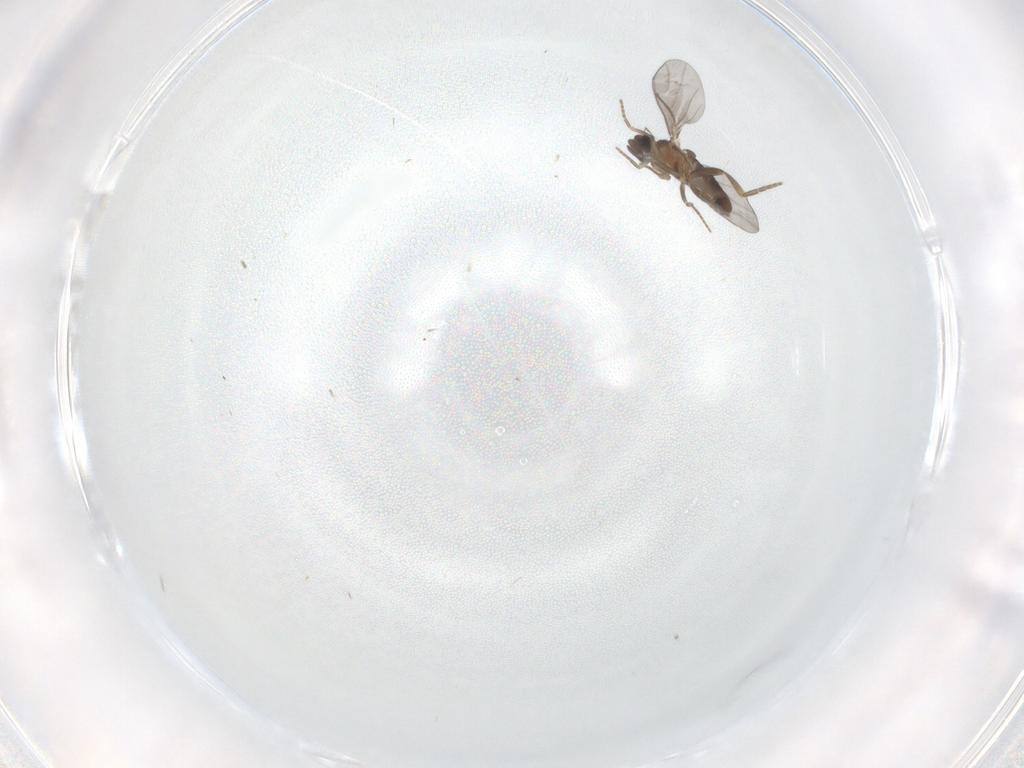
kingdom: Animalia
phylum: Arthropoda
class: Insecta
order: Diptera
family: Chironomidae
